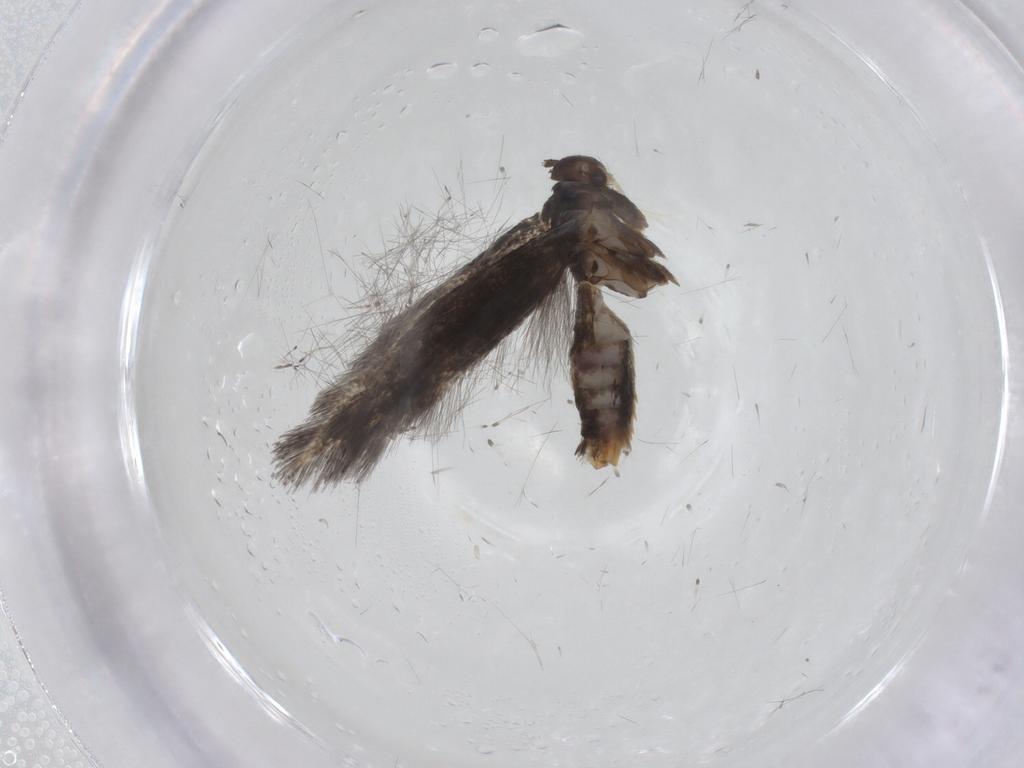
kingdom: Animalia
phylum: Arthropoda
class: Insecta
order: Lepidoptera
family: Elachistidae
